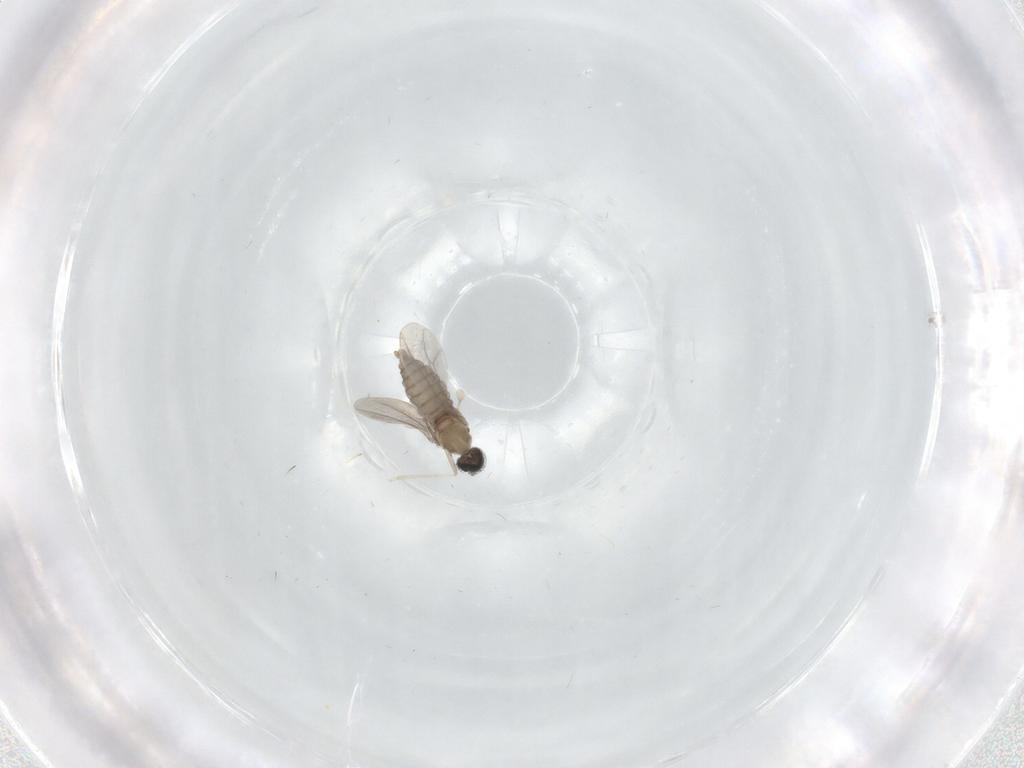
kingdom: Animalia
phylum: Arthropoda
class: Insecta
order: Diptera
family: Cecidomyiidae
